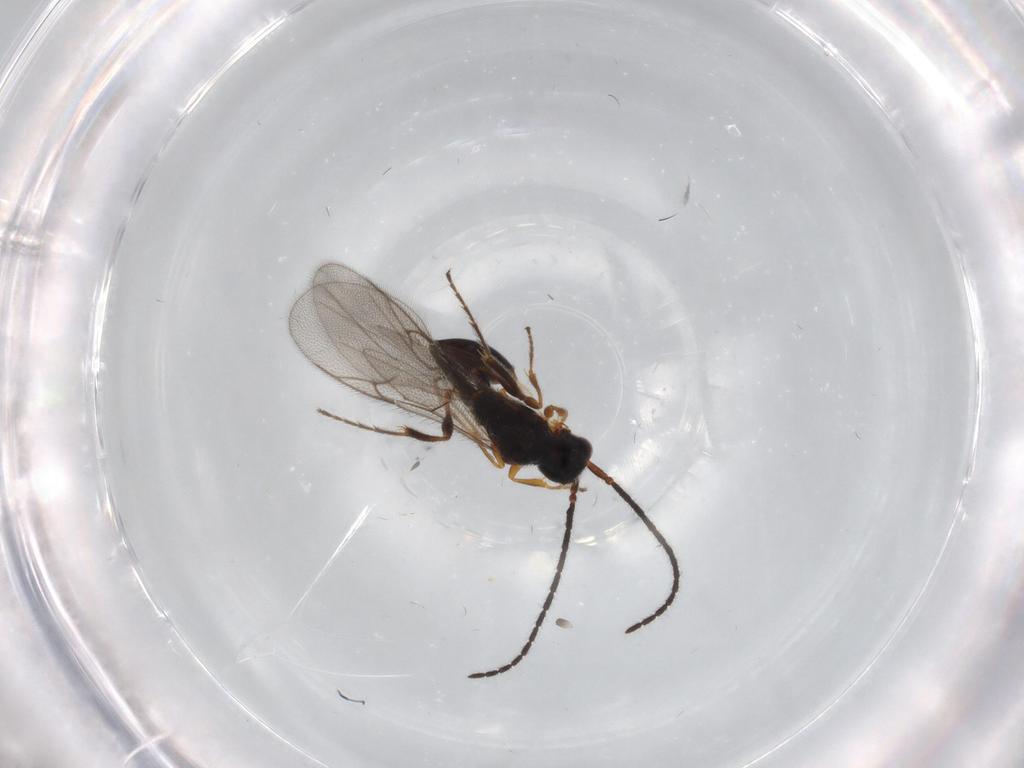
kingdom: Animalia
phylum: Arthropoda
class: Insecta
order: Hymenoptera
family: Diapriidae
